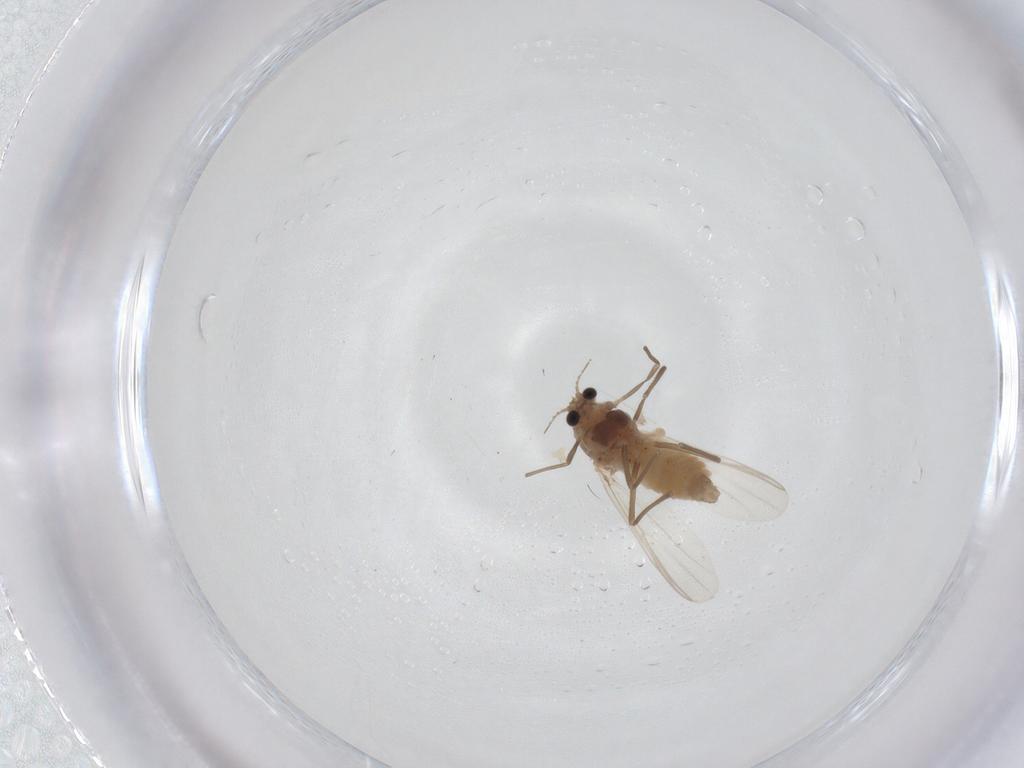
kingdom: Animalia
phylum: Arthropoda
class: Insecta
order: Diptera
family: Chironomidae
